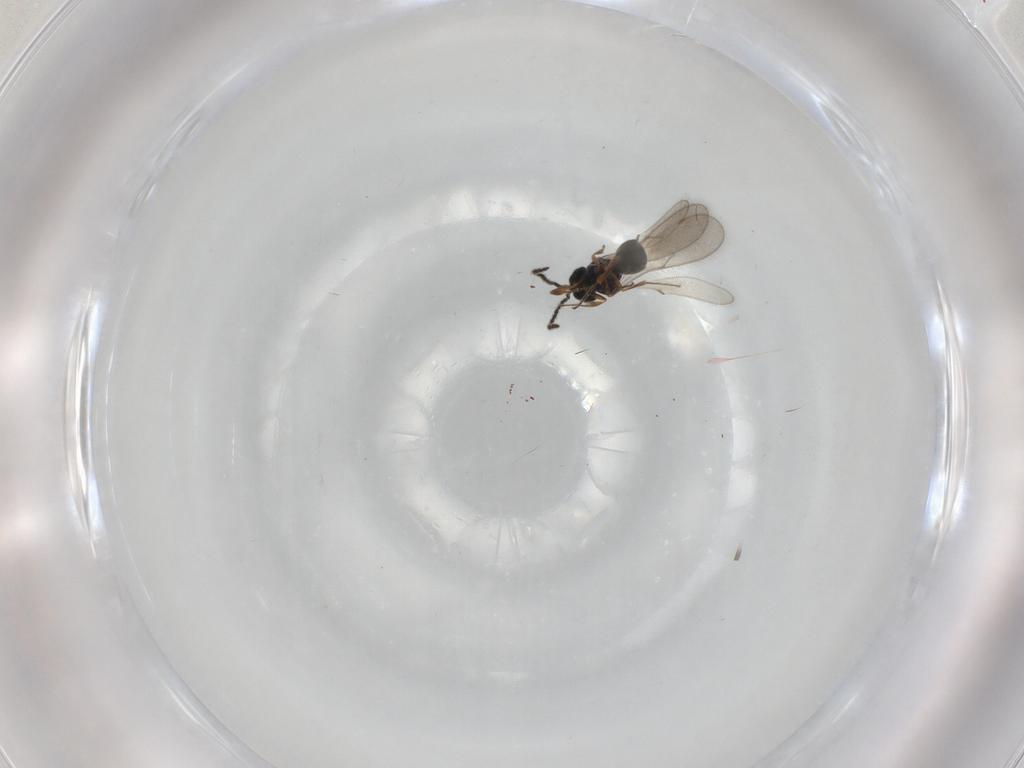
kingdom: Animalia
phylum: Arthropoda
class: Insecta
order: Hymenoptera
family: Scelionidae
